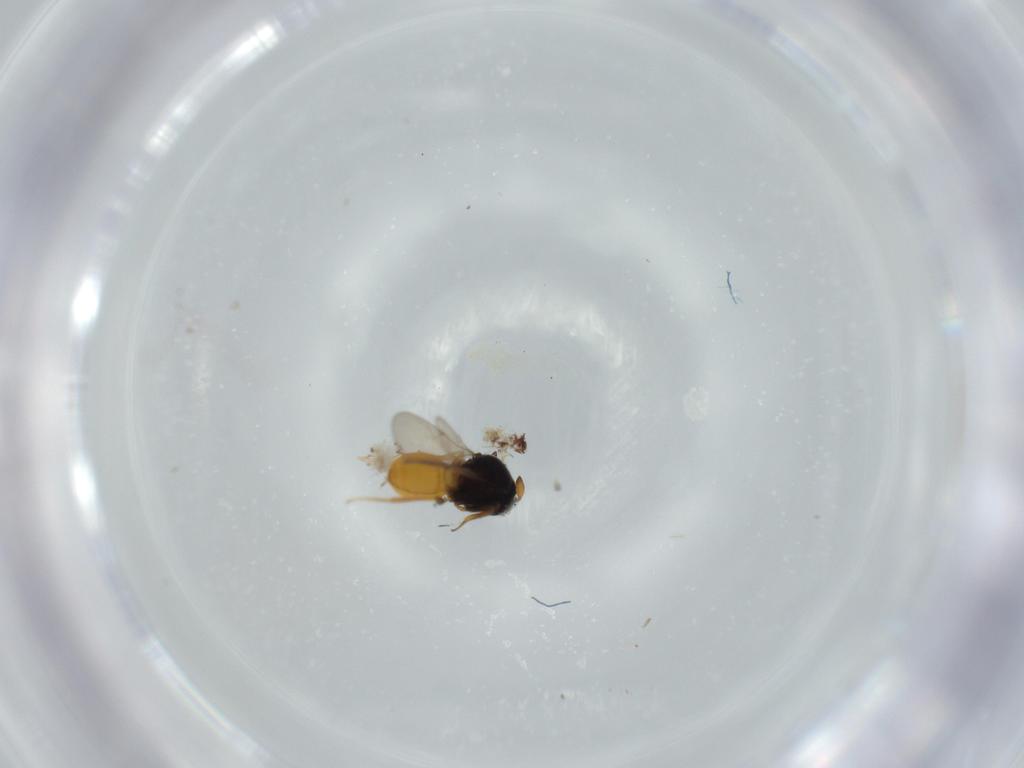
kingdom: Animalia
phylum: Arthropoda
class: Insecta
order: Hymenoptera
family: Scelionidae
